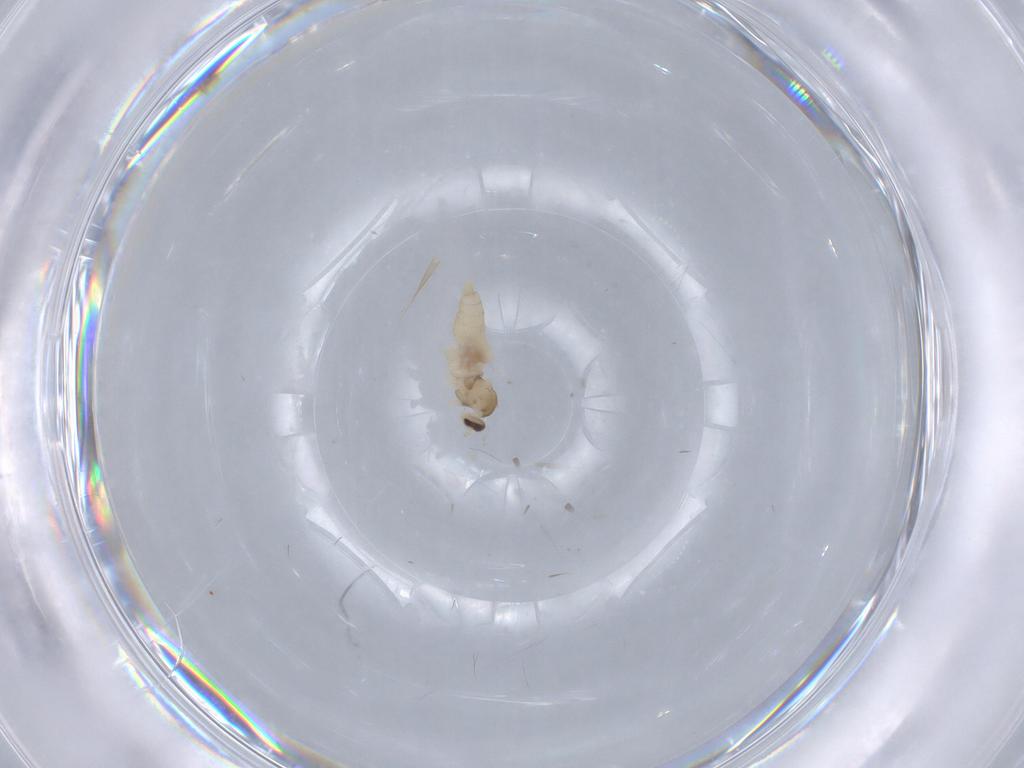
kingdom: Animalia
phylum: Arthropoda
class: Insecta
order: Diptera
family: Cecidomyiidae
